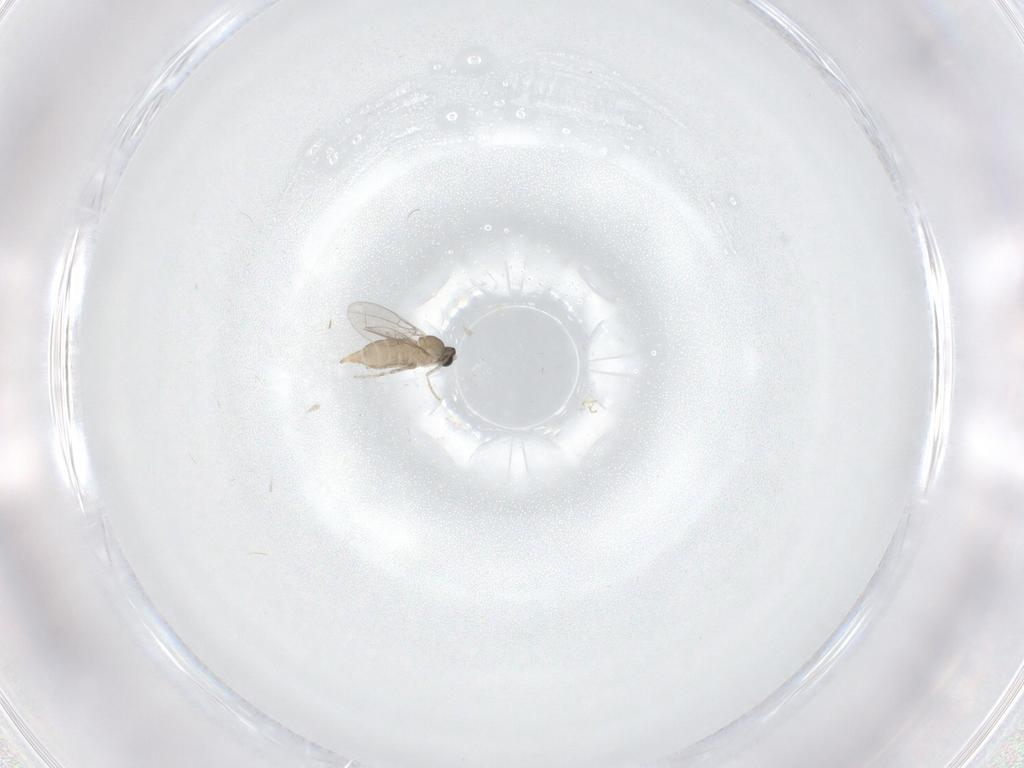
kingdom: Animalia
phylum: Arthropoda
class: Insecta
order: Diptera
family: Cecidomyiidae
